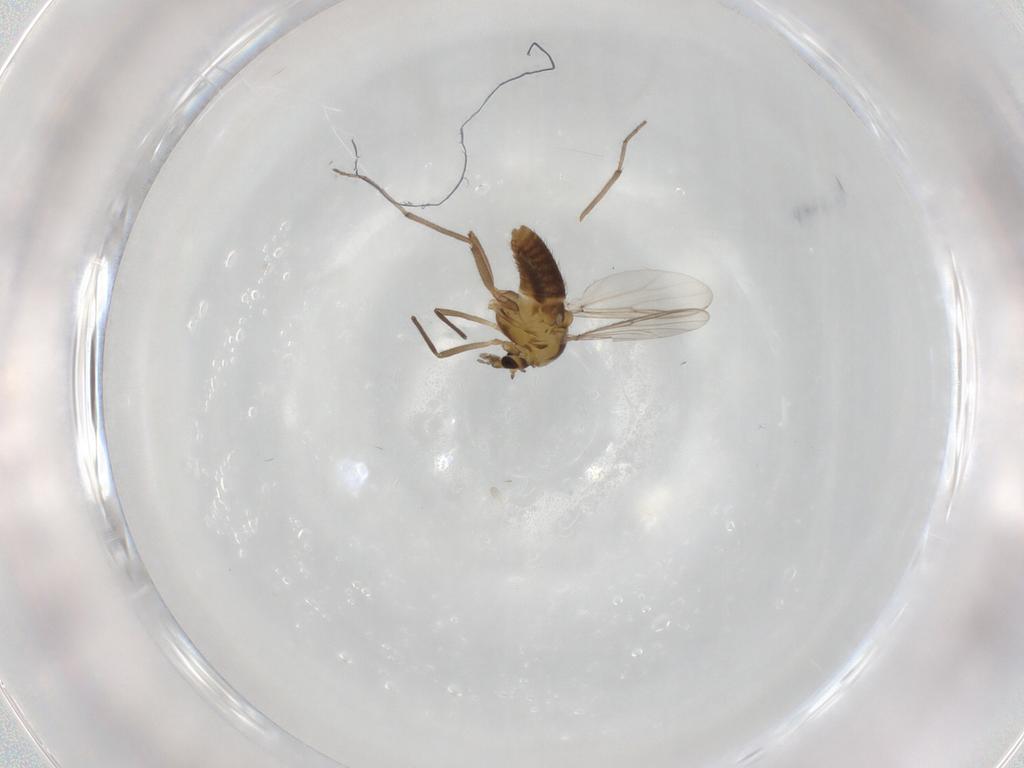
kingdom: Animalia
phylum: Arthropoda
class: Insecta
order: Diptera
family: Chironomidae
